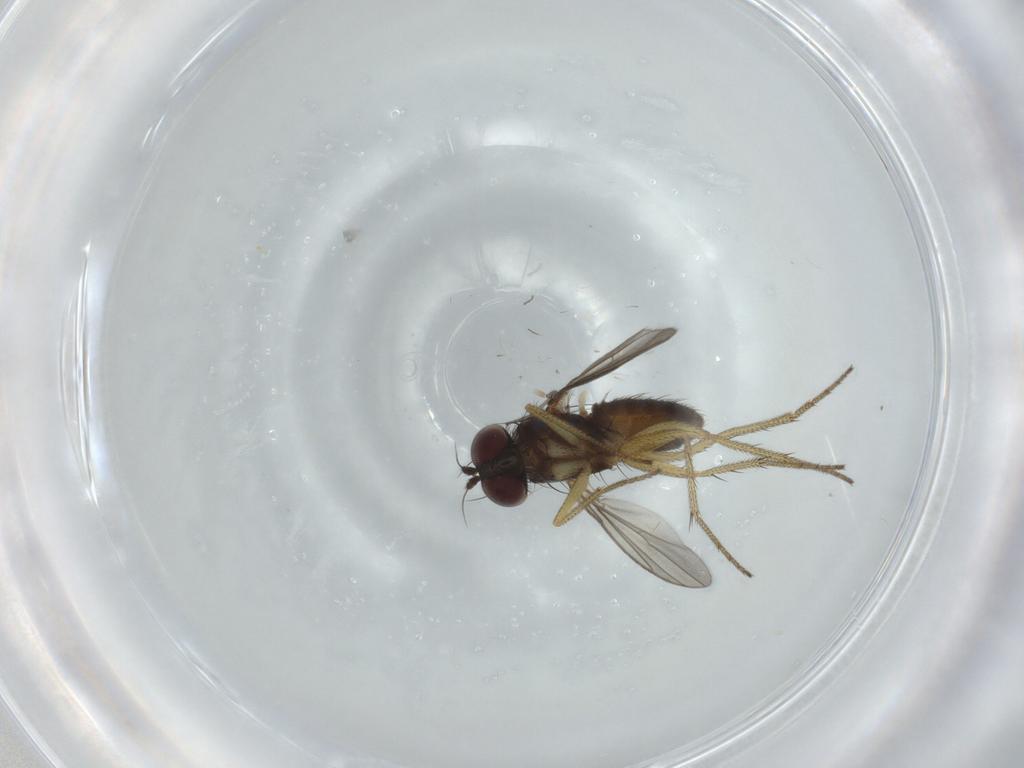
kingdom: Animalia
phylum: Arthropoda
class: Insecta
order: Diptera
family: Sciaridae
